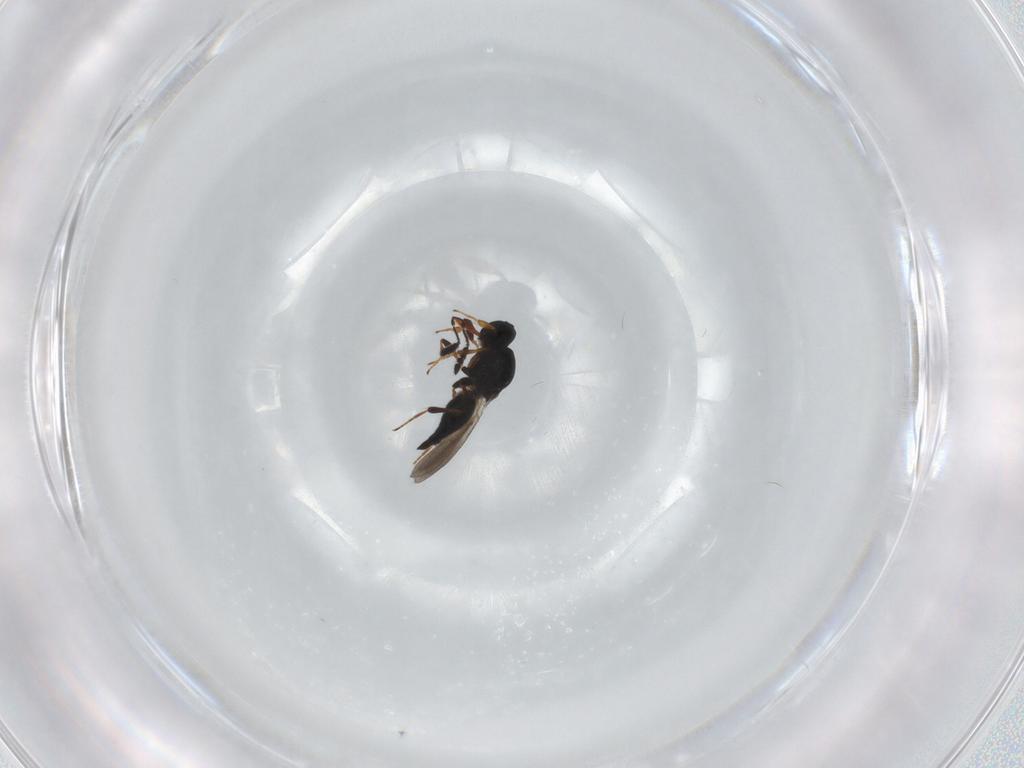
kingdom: Animalia
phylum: Arthropoda
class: Insecta
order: Hymenoptera
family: Platygastridae
